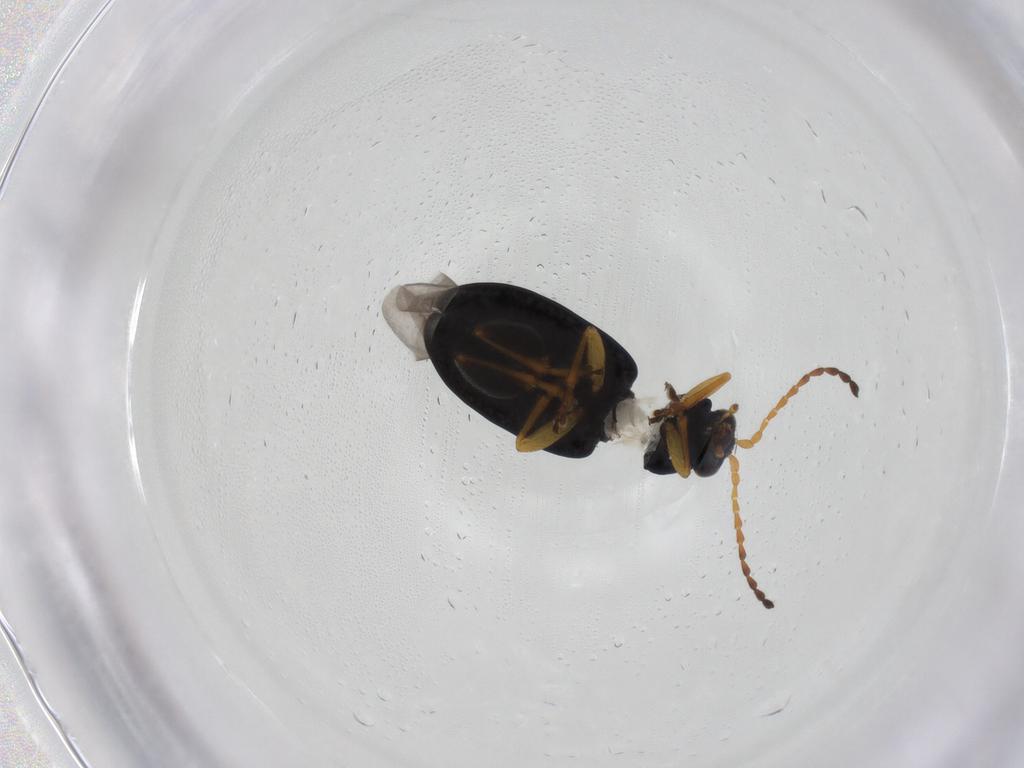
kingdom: Animalia
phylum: Arthropoda
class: Insecta
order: Coleoptera
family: Chrysomelidae
